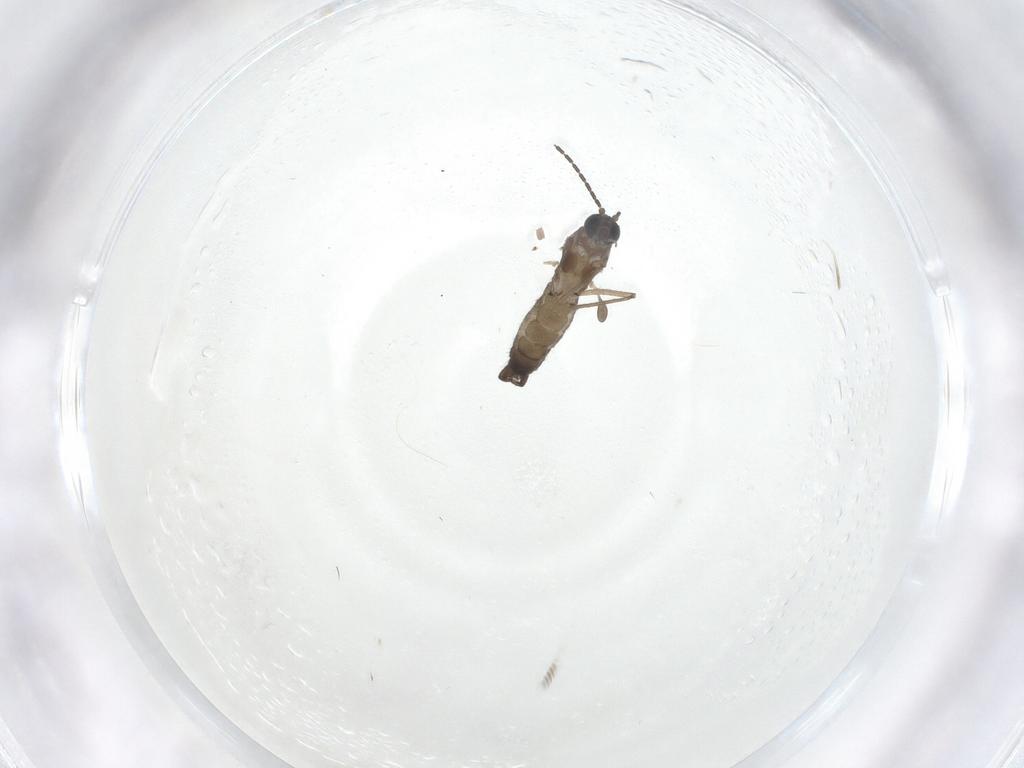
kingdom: Animalia
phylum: Arthropoda
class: Insecta
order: Diptera
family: Sciaridae
